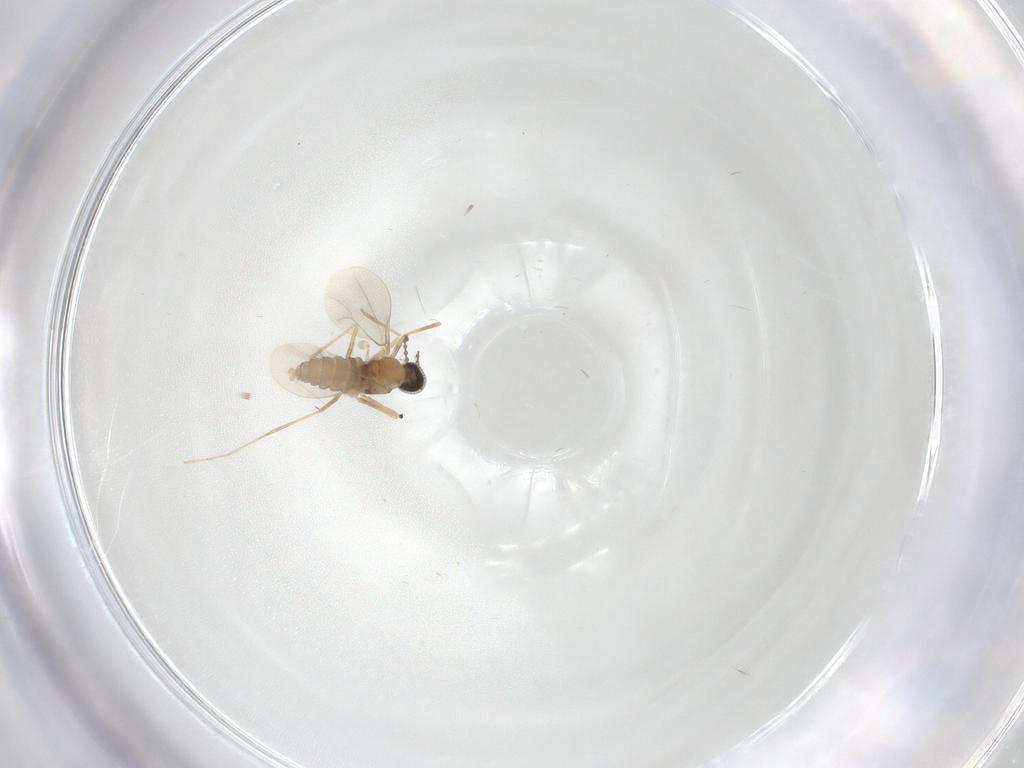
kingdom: Animalia
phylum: Arthropoda
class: Insecta
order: Diptera
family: Cecidomyiidae
